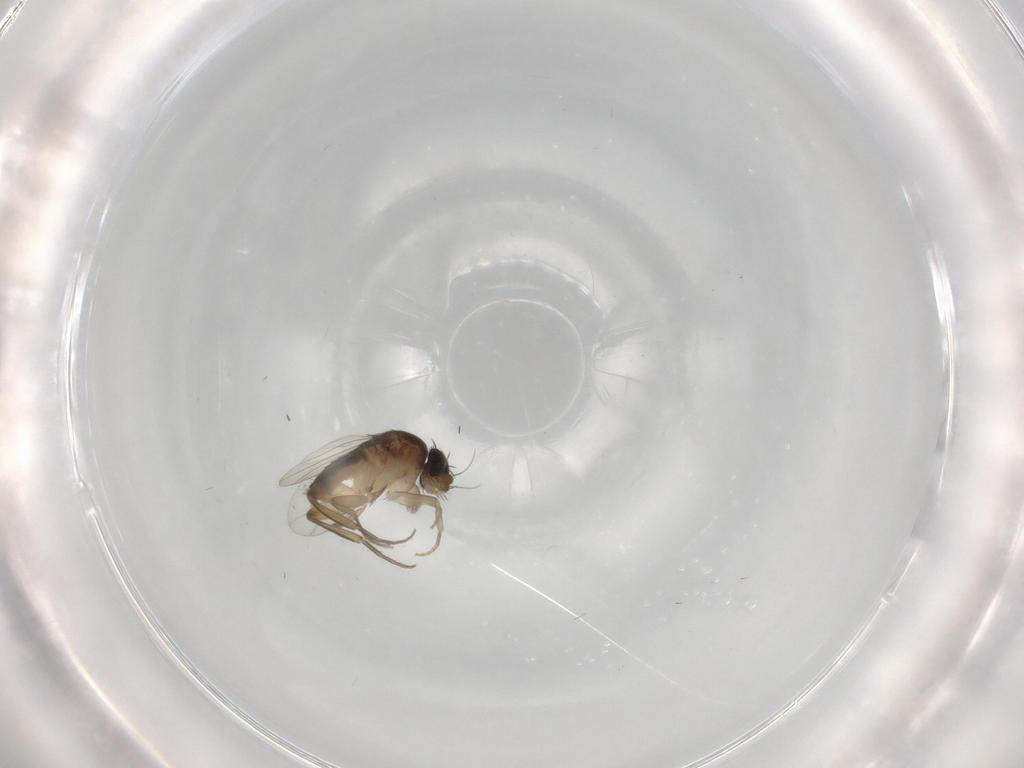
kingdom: Animalia
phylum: Arthropoda
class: Insecta
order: Diptera
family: Phoridae
